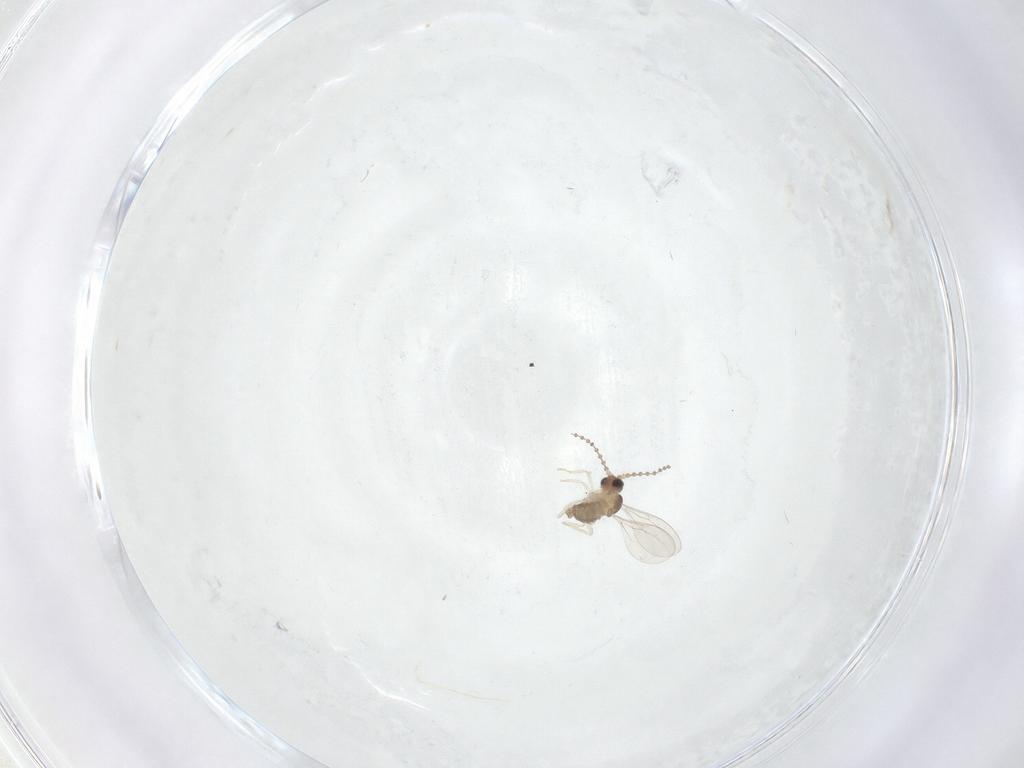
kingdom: Animalia
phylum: Arthropoda
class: Insecta
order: Diptera
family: Cecidomyiidae
